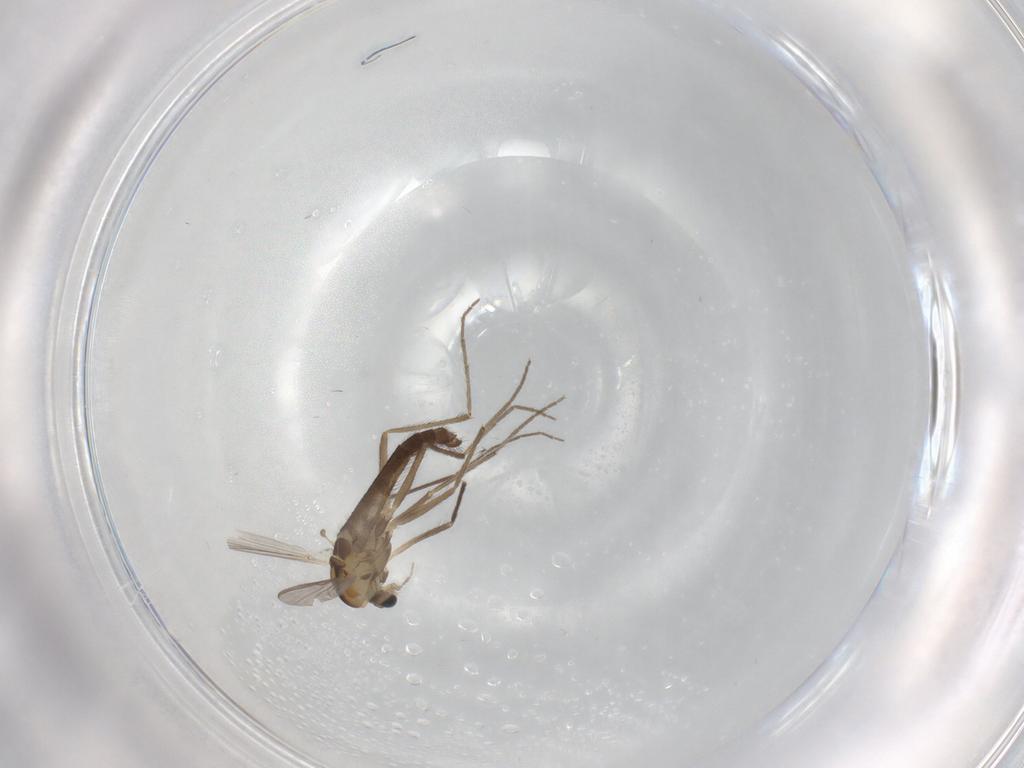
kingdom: Animalia
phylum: Arthropoda
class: Insecta
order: Diptera
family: Chironomidae
